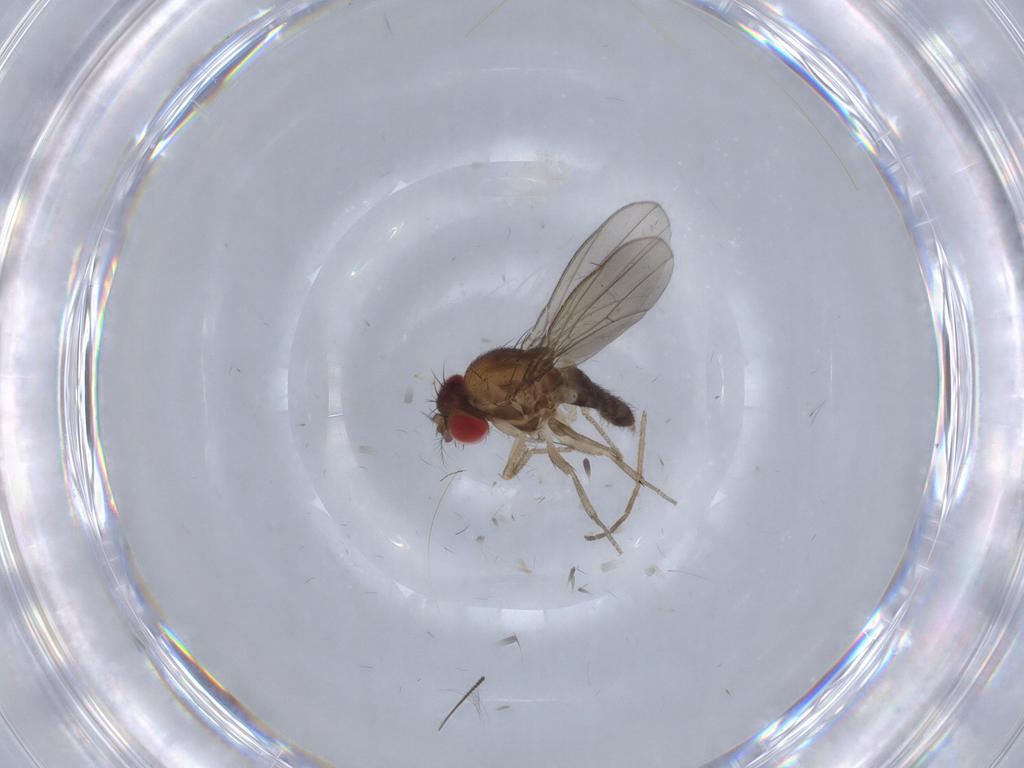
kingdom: Animalia
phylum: Arthropoda
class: Insecta
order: Diptera
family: Drosophilidae
